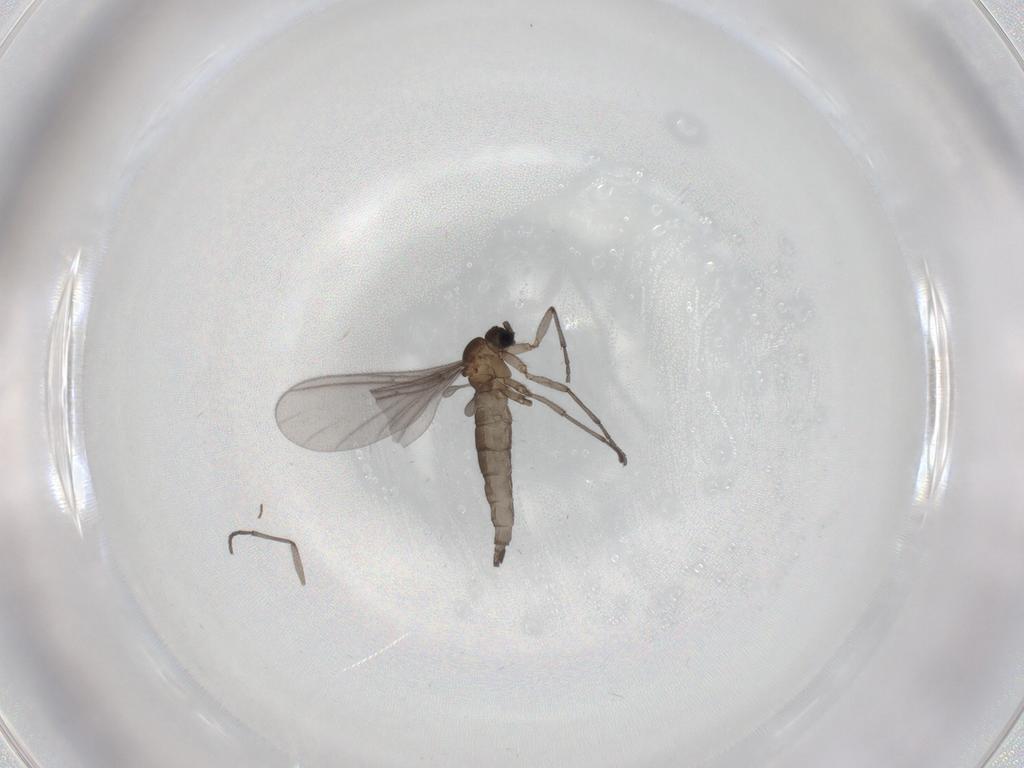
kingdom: Animalia
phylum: Arthropoda
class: Insecta
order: Diptera
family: Sciaridae
